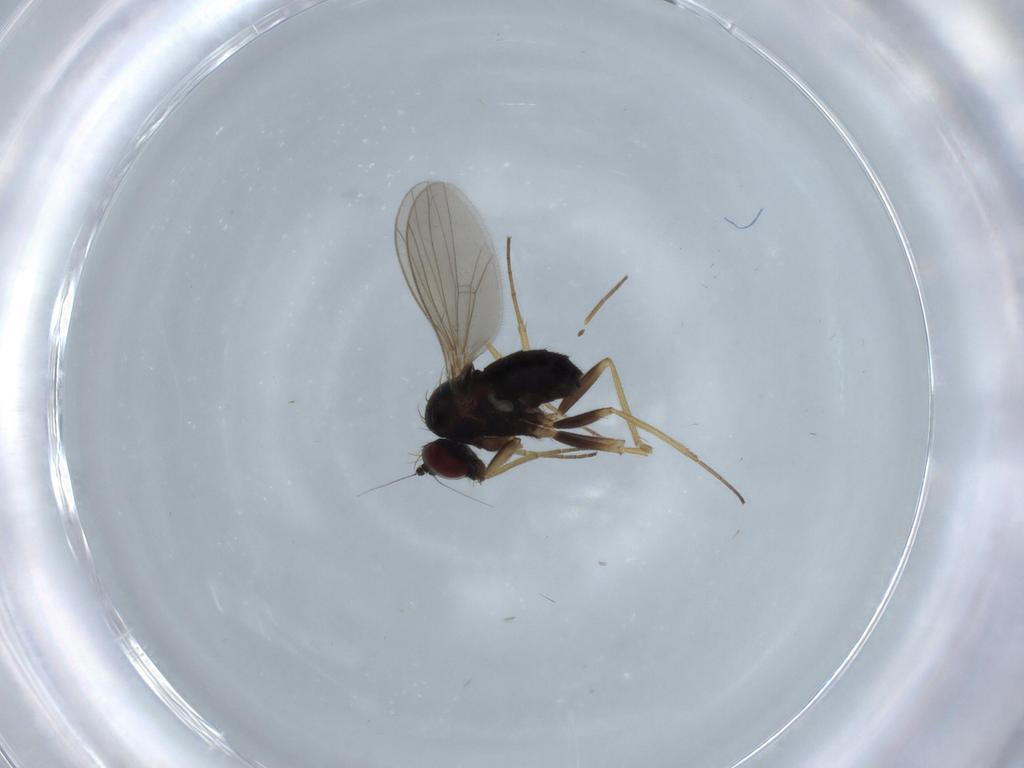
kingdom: Animalia
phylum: Arthropoda
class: Insecta
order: Diptera
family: Dolichopodidae
